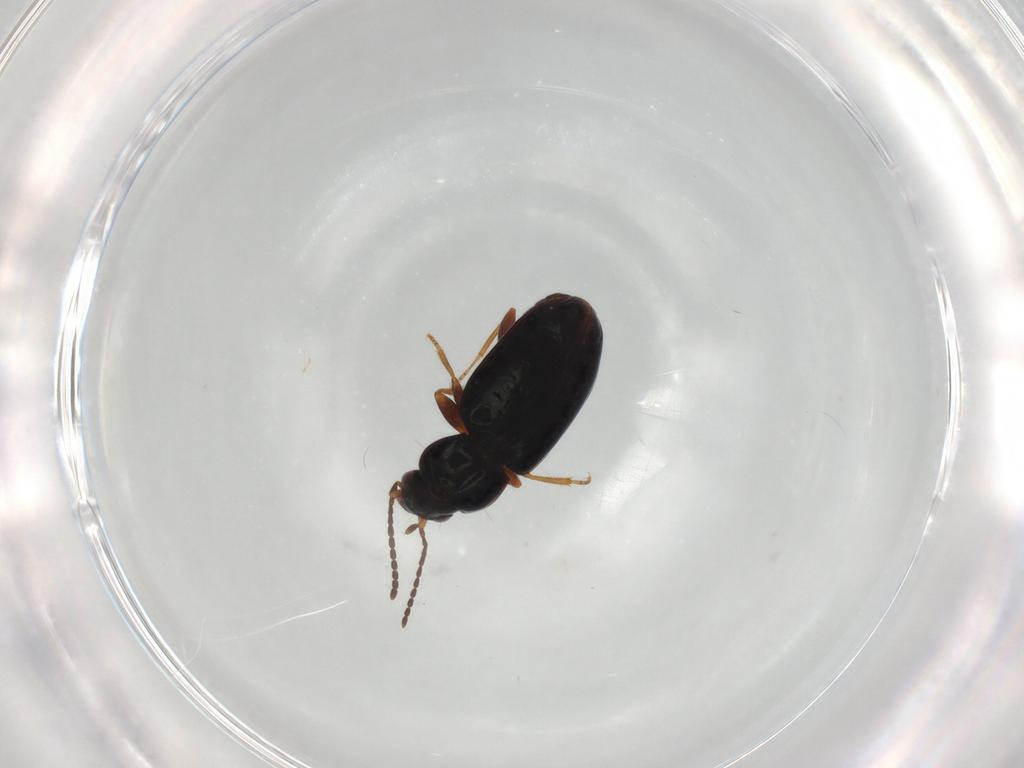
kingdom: Animalia
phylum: Arthropoda
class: Insecta
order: Coleoptera
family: Carabidae
